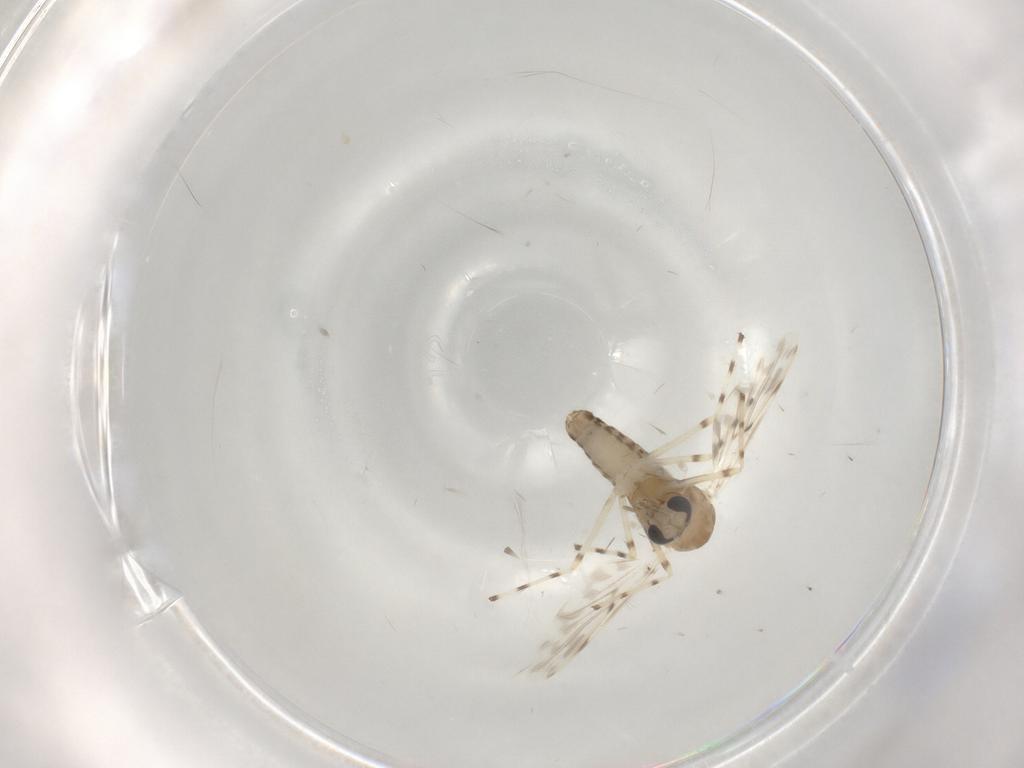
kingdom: Animalia
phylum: Arthropoda
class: Insecta
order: Diptera
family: Chironomidae
